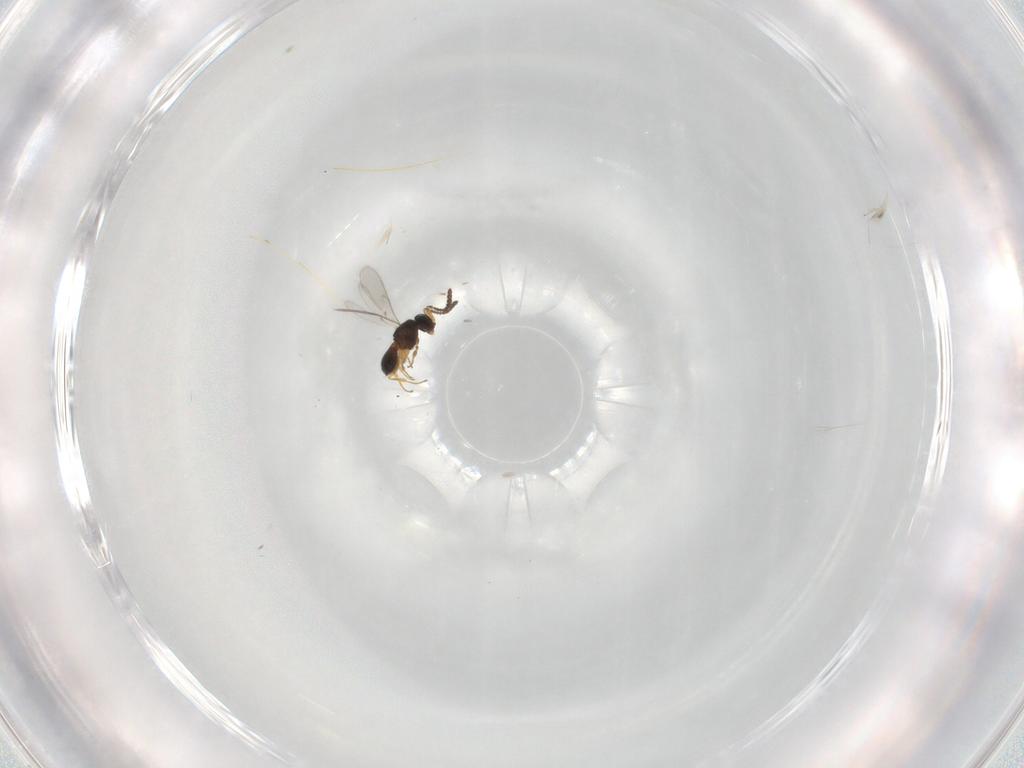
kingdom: Animalia
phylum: Arthropoda
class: Insecta
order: Hymenoptera
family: Scelionidae
